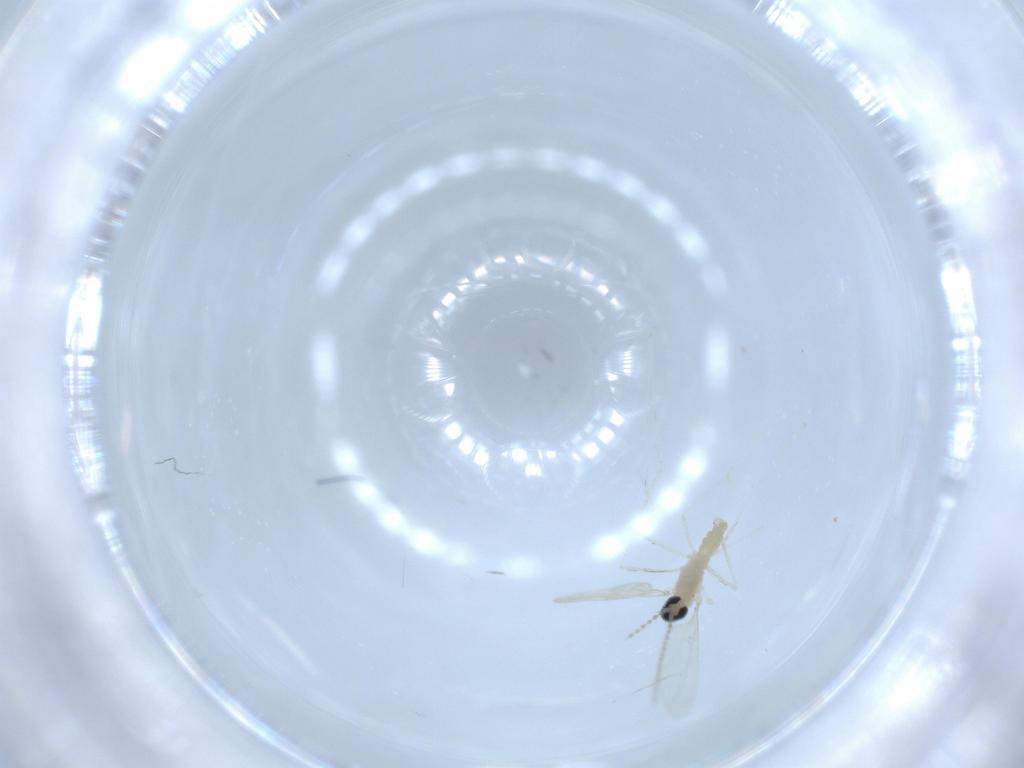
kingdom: Animalia
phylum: Arthropoda
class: Insecta
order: Diptera
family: Cecidomyiidae
